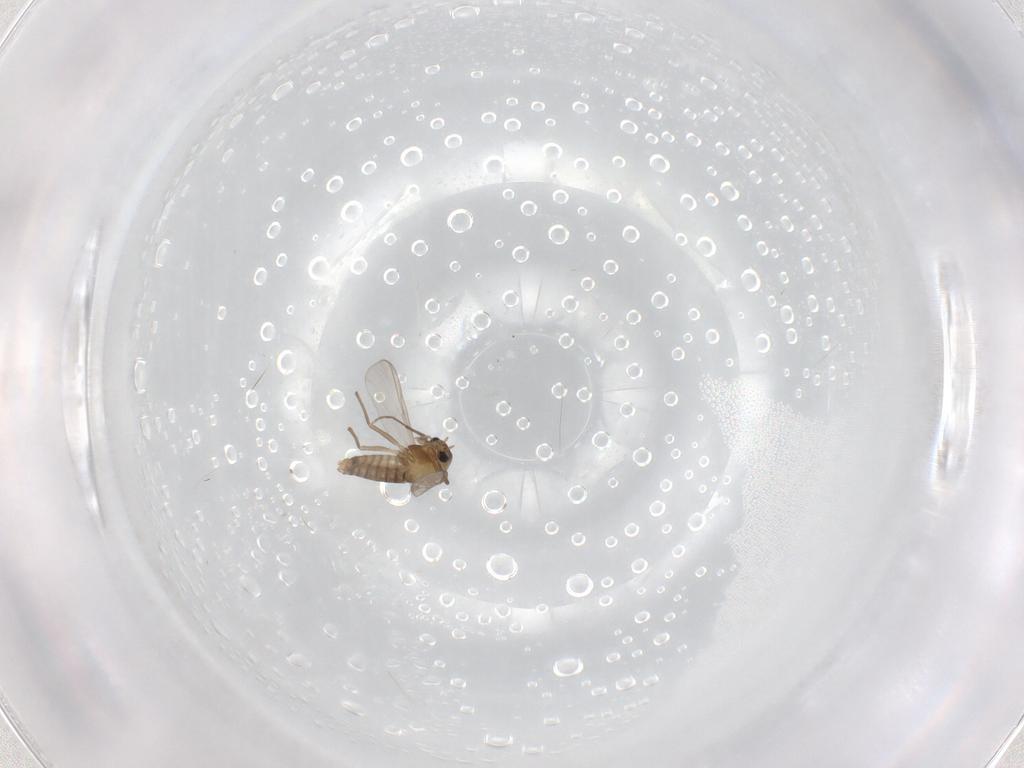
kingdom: Animalia
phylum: Arthropoda
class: Insecta
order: Diptera
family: Chironomidae
